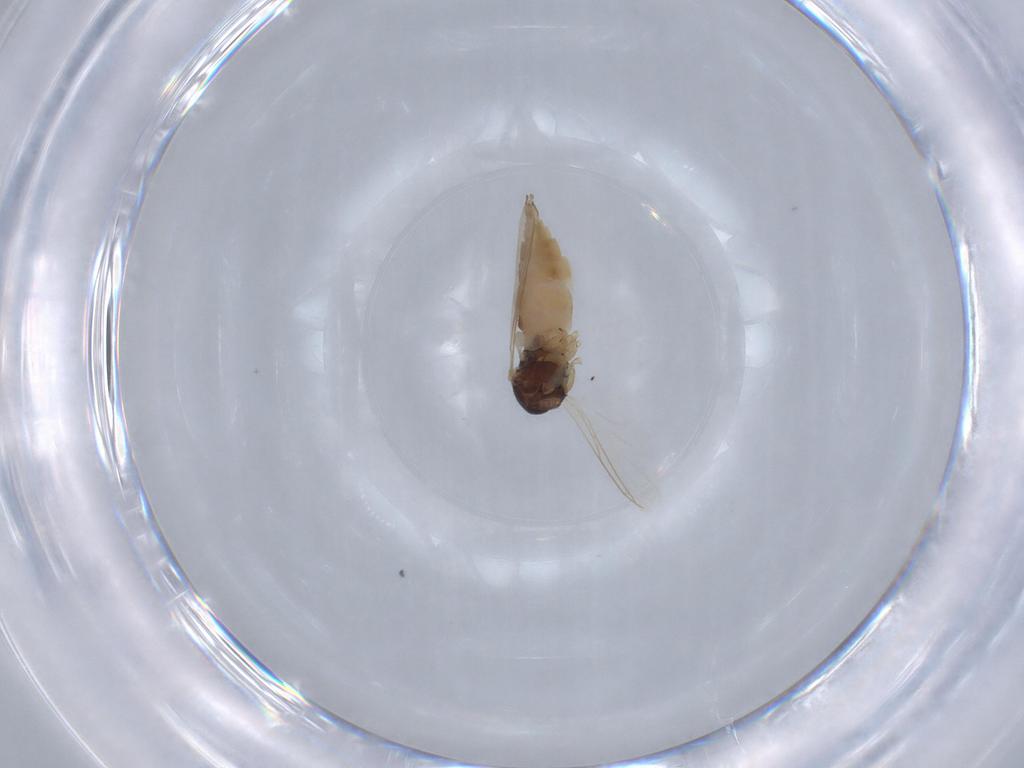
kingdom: Animalia
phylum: Arthropoda
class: Insecta
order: Diptera
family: Sciaridae
